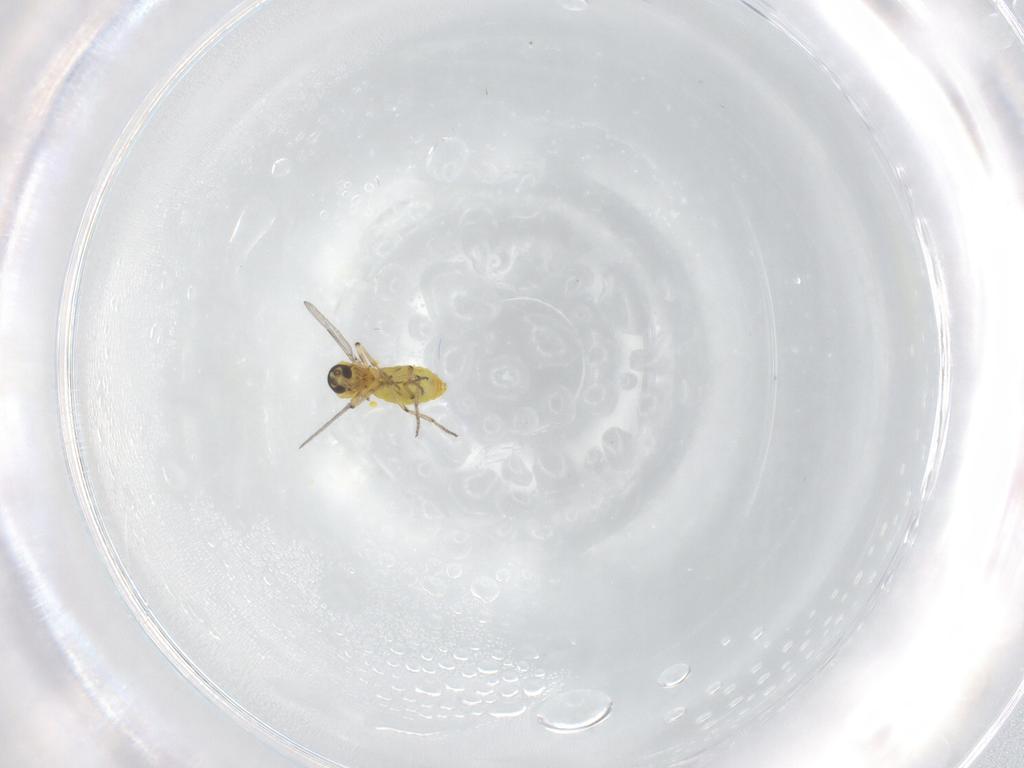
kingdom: Animalia
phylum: Arthropoda
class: Insecta
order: Diptera
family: Ceratopogonidae
